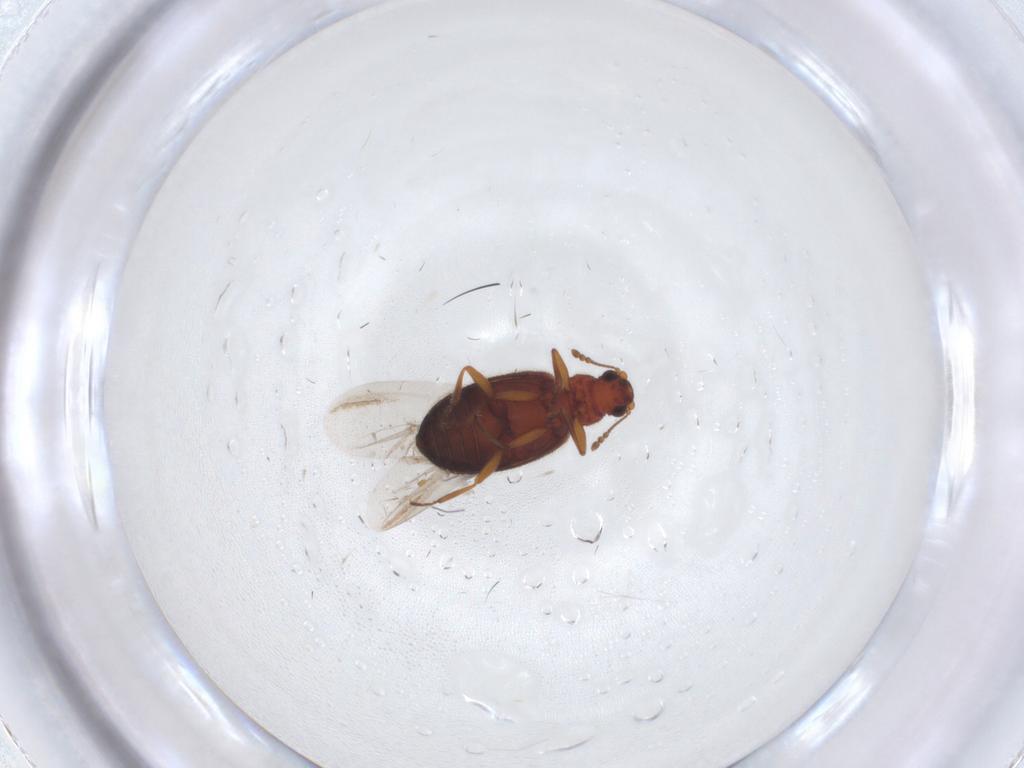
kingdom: Animalia
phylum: Arthropoda
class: Insecta
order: Coleoptera
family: Latridiidae
